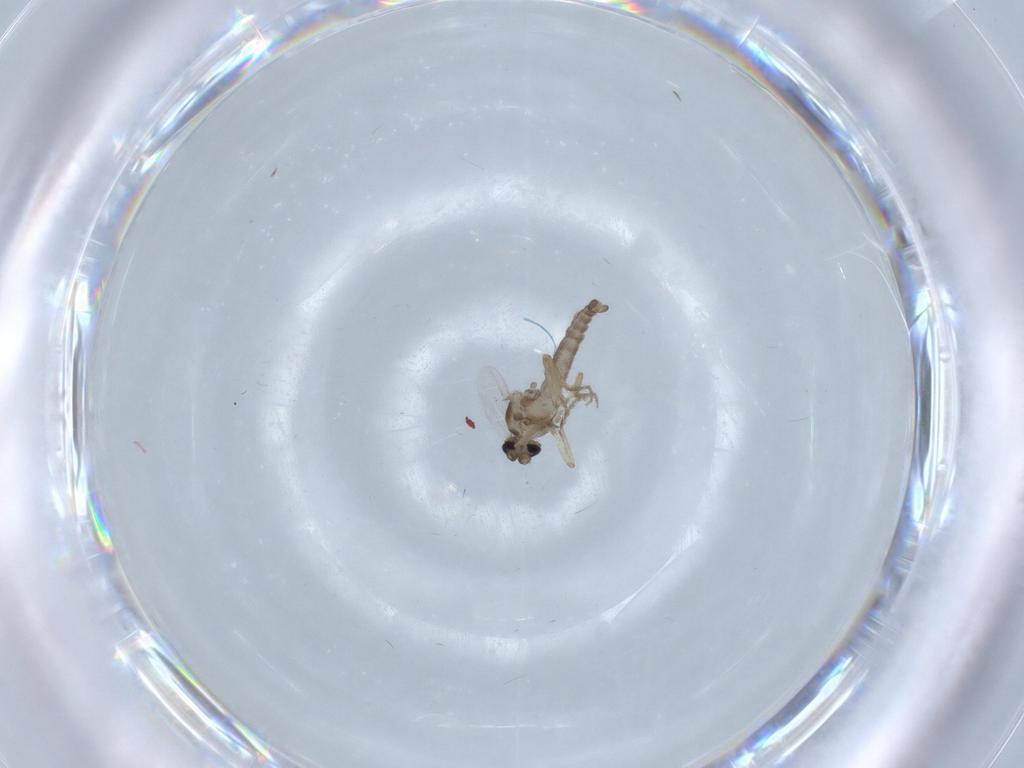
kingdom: Animalia
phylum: Arthropoda
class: Insecta
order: Diptera
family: Ceratopogonidae
